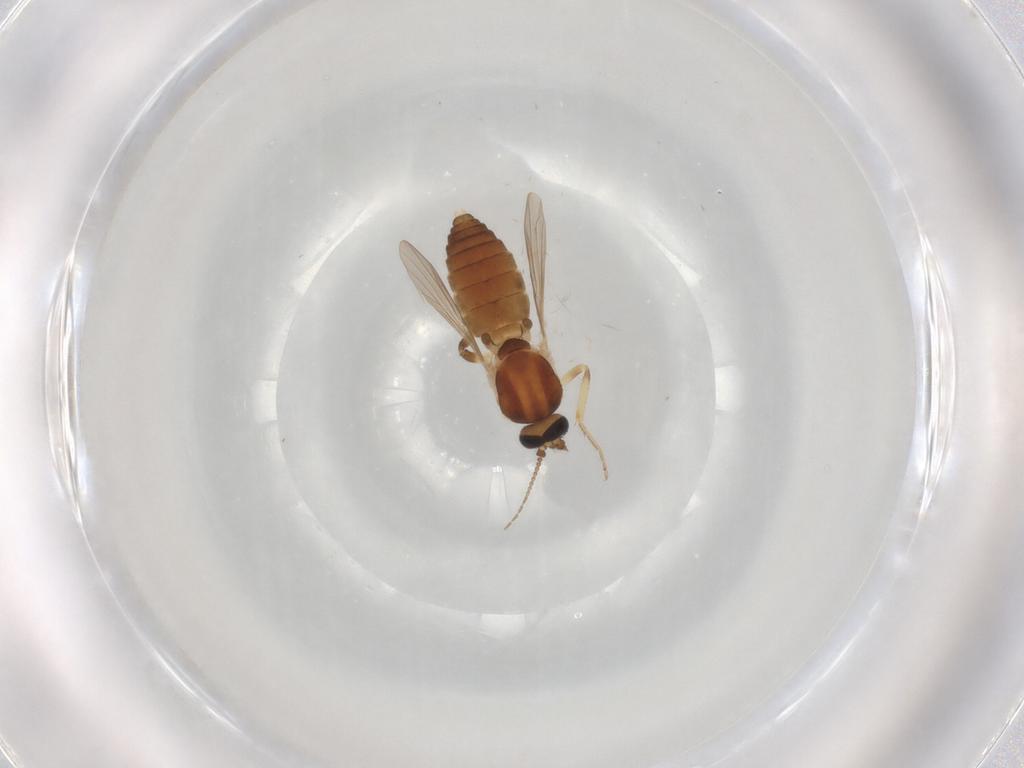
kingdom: Animalia
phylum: Arthropoda
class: Insecta
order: Diptera
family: Ceratopogonidae
